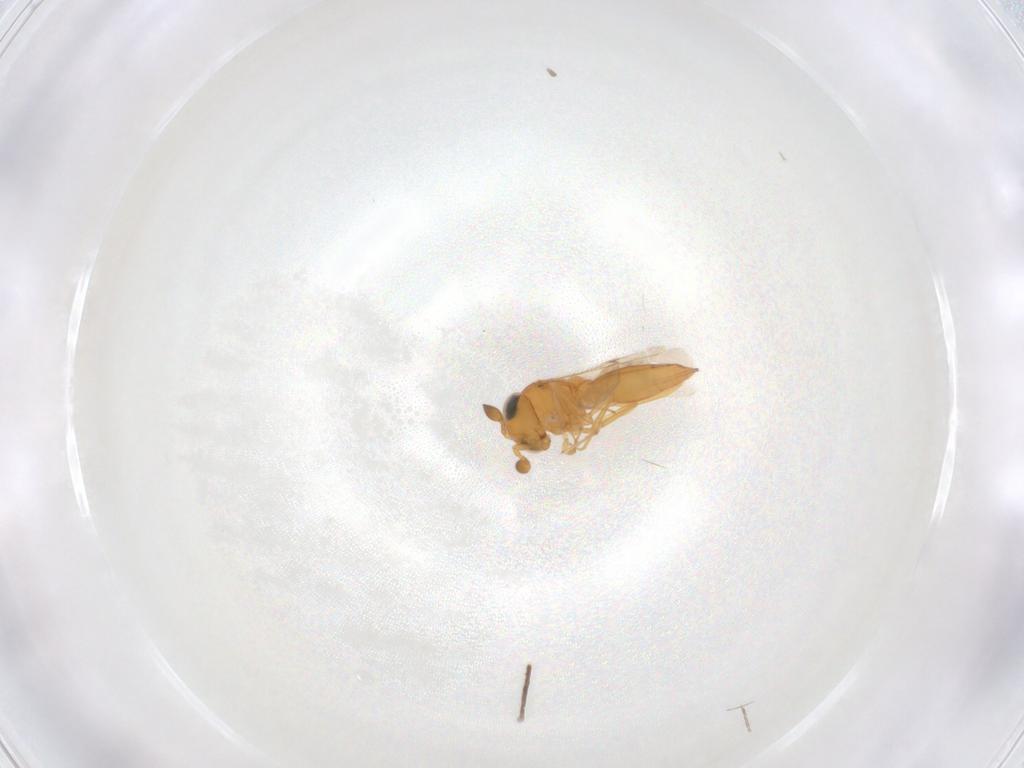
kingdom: Animalia
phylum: Arthropoda
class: Insecta
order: Hymenoptera
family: Scelionidae
